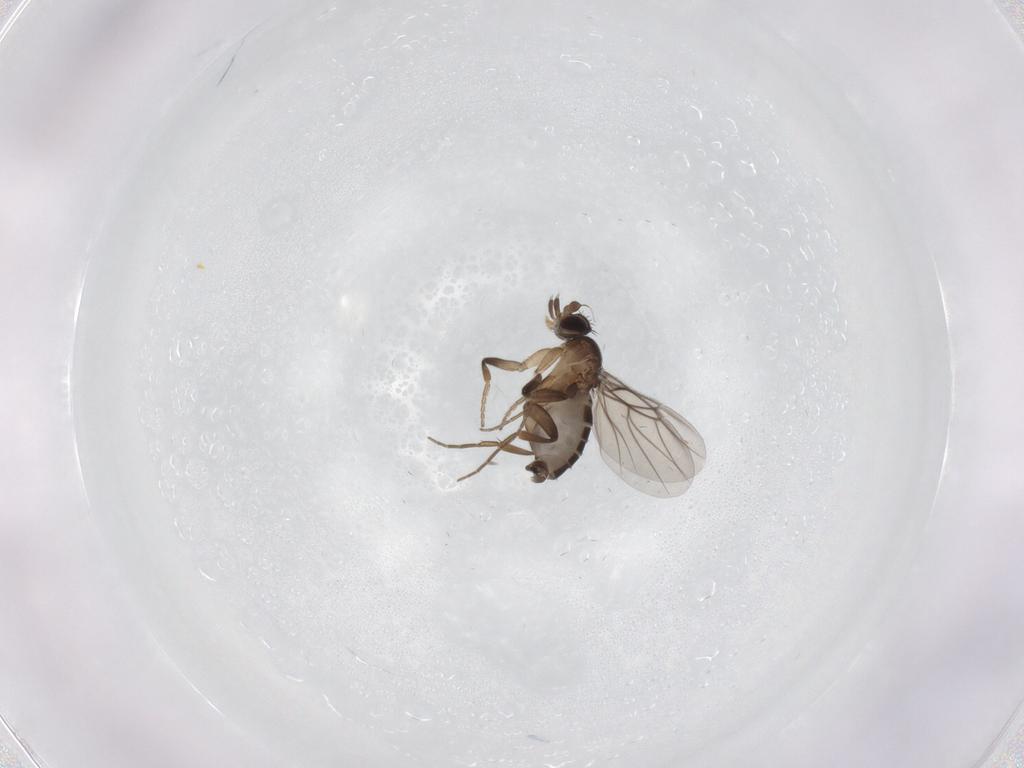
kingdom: Animalia
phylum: Arthropoda
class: Insecta
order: Diptera
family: Phoridae
